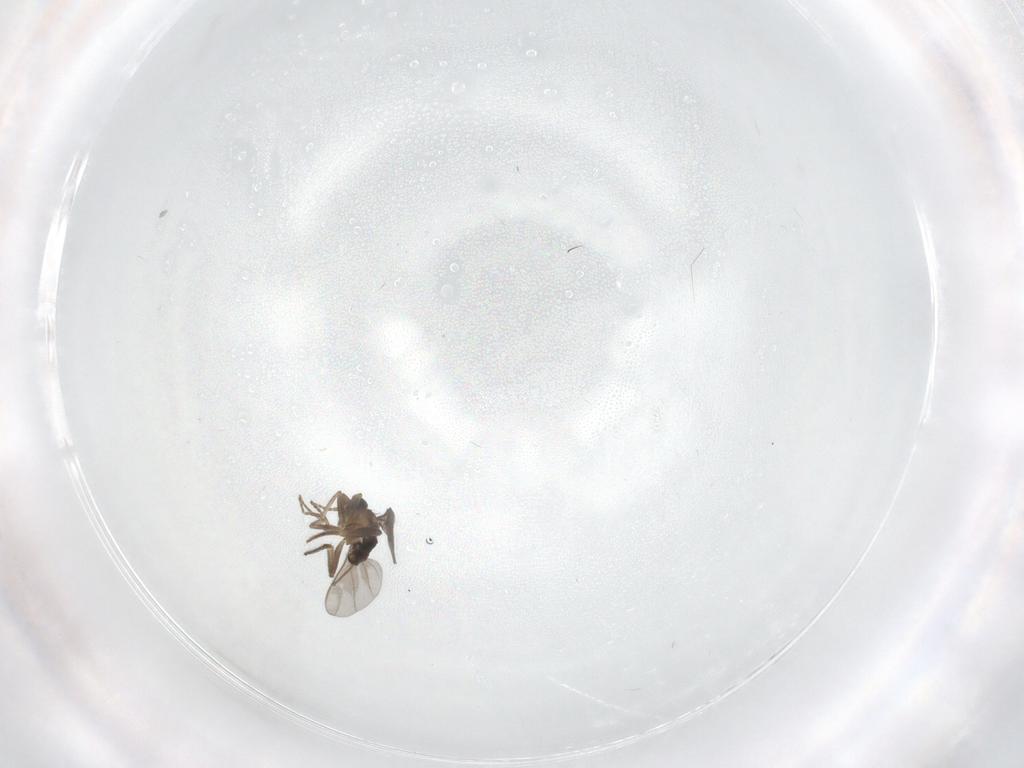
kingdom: Animalia
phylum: Arthropoda
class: Insecta
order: Diptera
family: Cecidomyiidae
